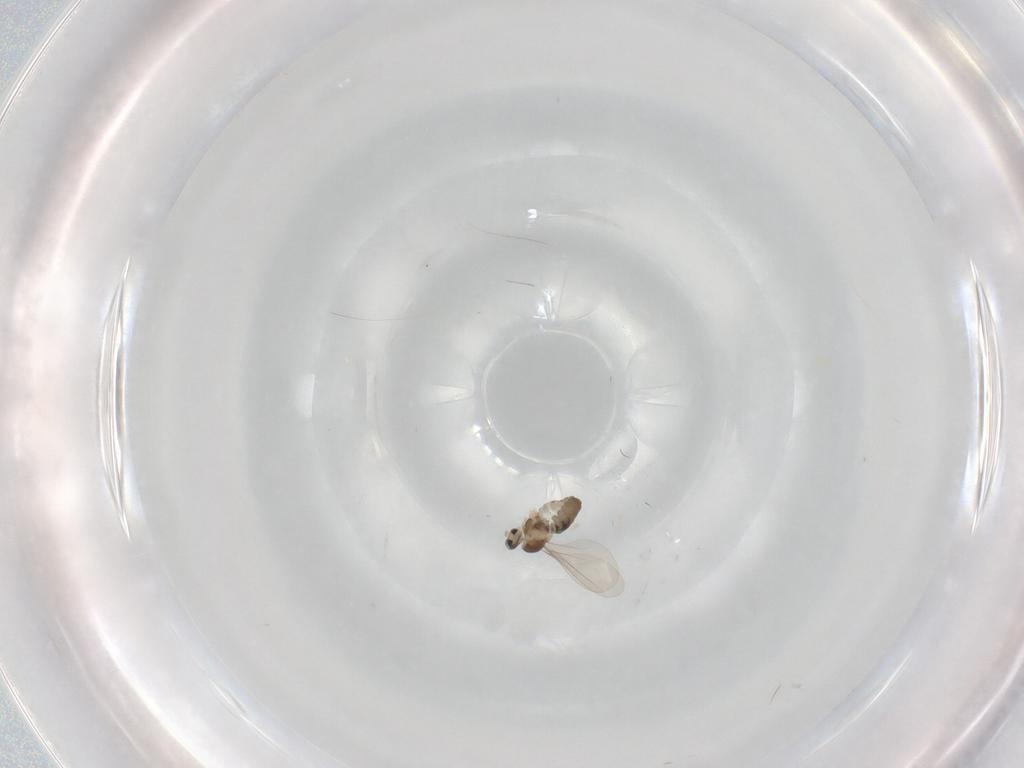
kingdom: Animalia
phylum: Arthropoda
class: Insecta
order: Diptera
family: Cecidomyiidae
